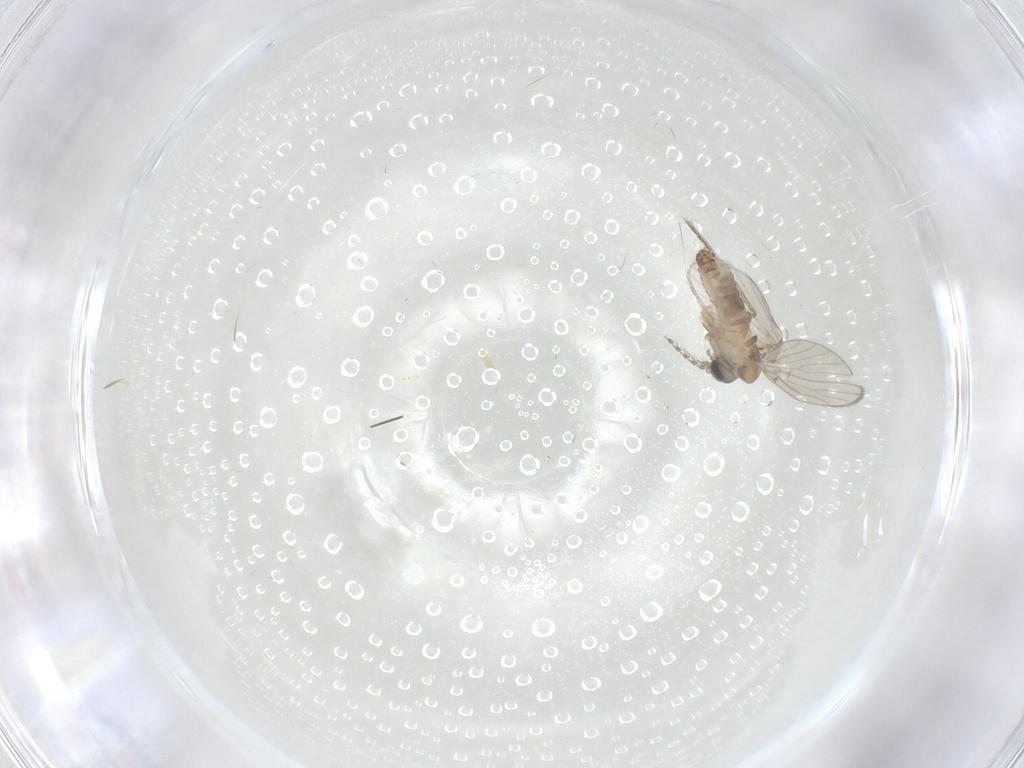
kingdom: Animalia
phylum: Arthropoda
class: Insecta
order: Diptera
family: Psychodidae
